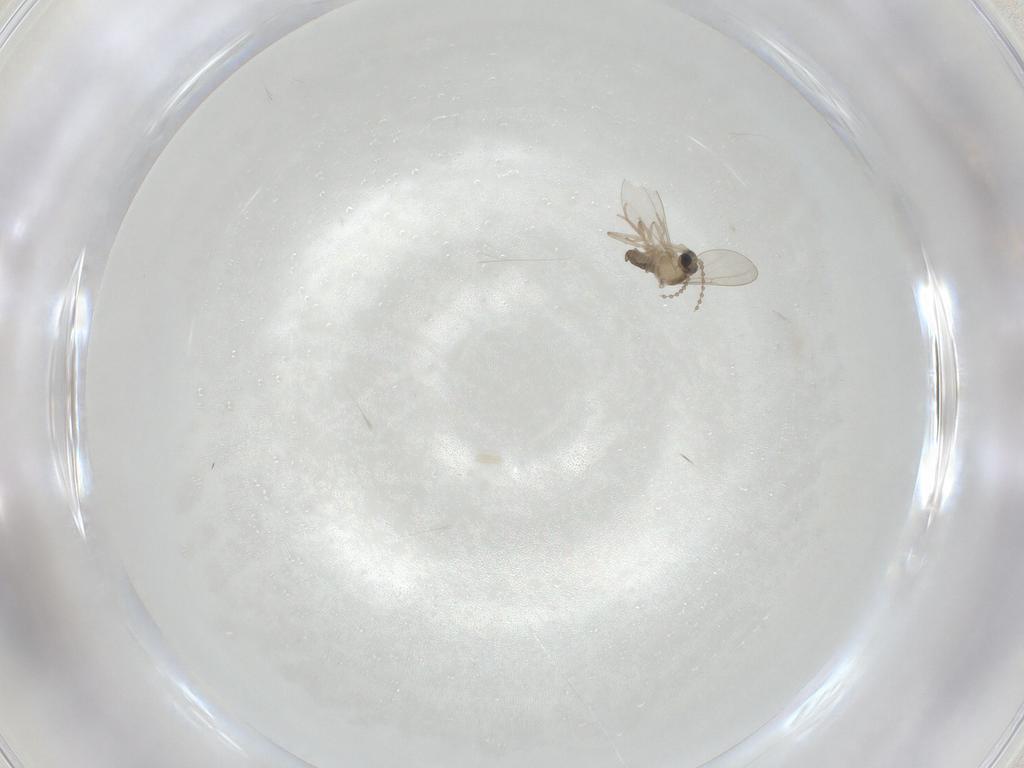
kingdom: Animalia
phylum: Arthropoda
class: Insecta
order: Diptera
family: Cecidomyiidae
